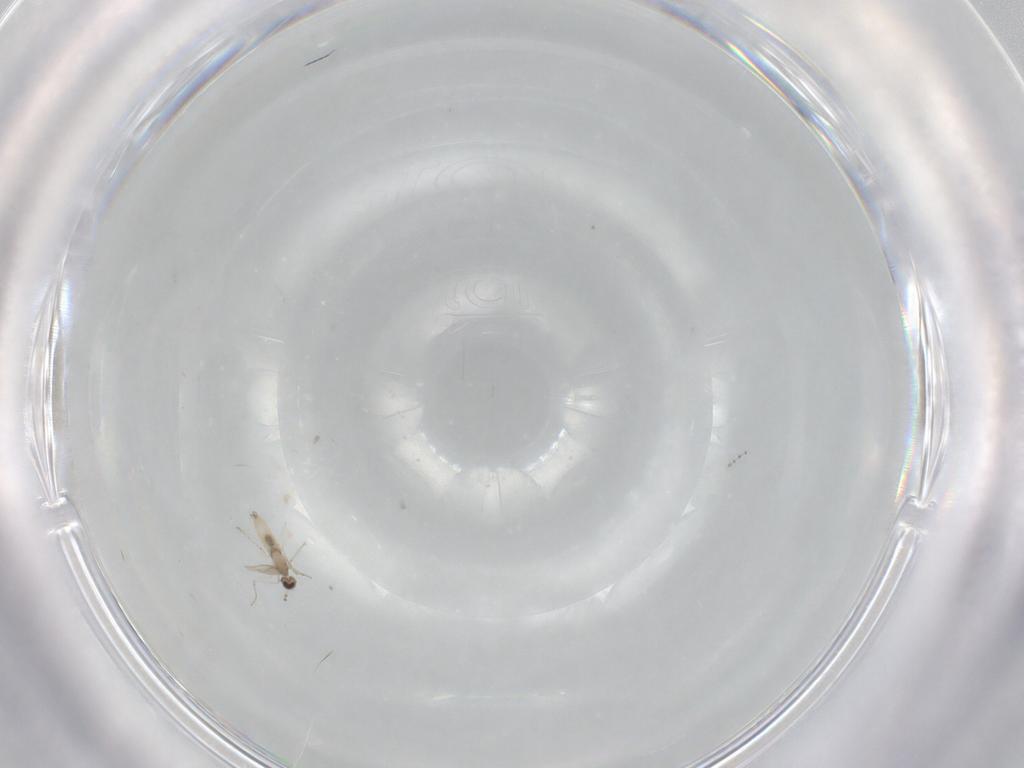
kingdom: Animalia
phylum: Arthropoda
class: Insecta
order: Diptera
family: Cecidomyiidae
